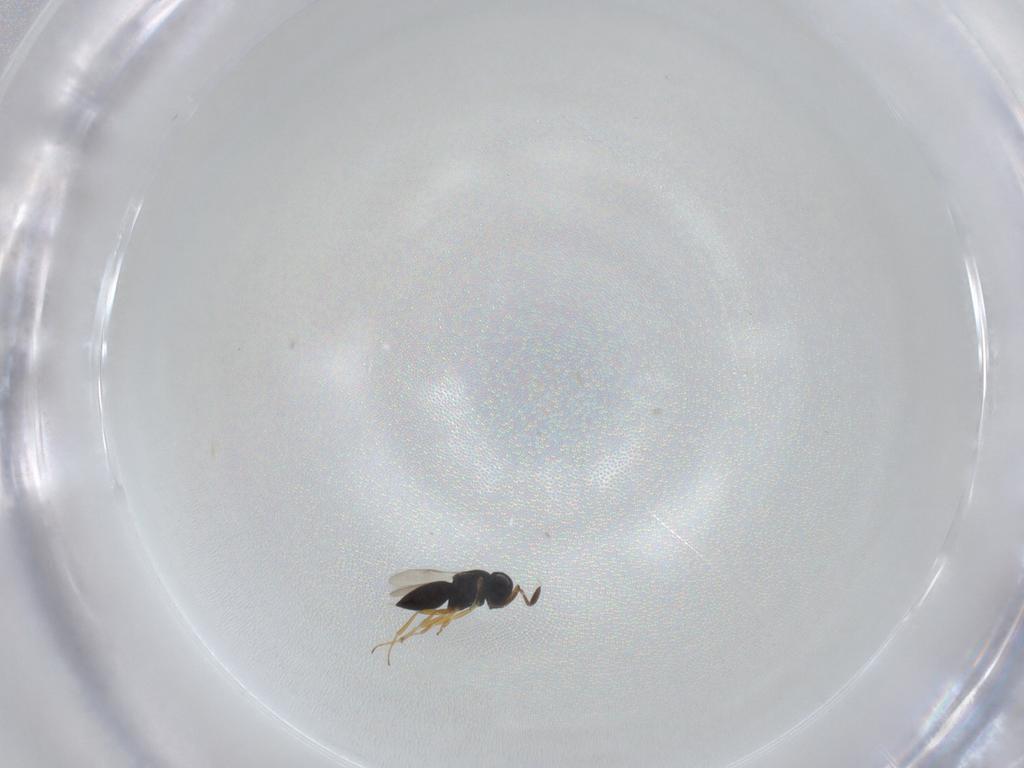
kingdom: Animalia
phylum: Arthropoda
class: Insecta
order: Hymenoptera
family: Scelionidae
